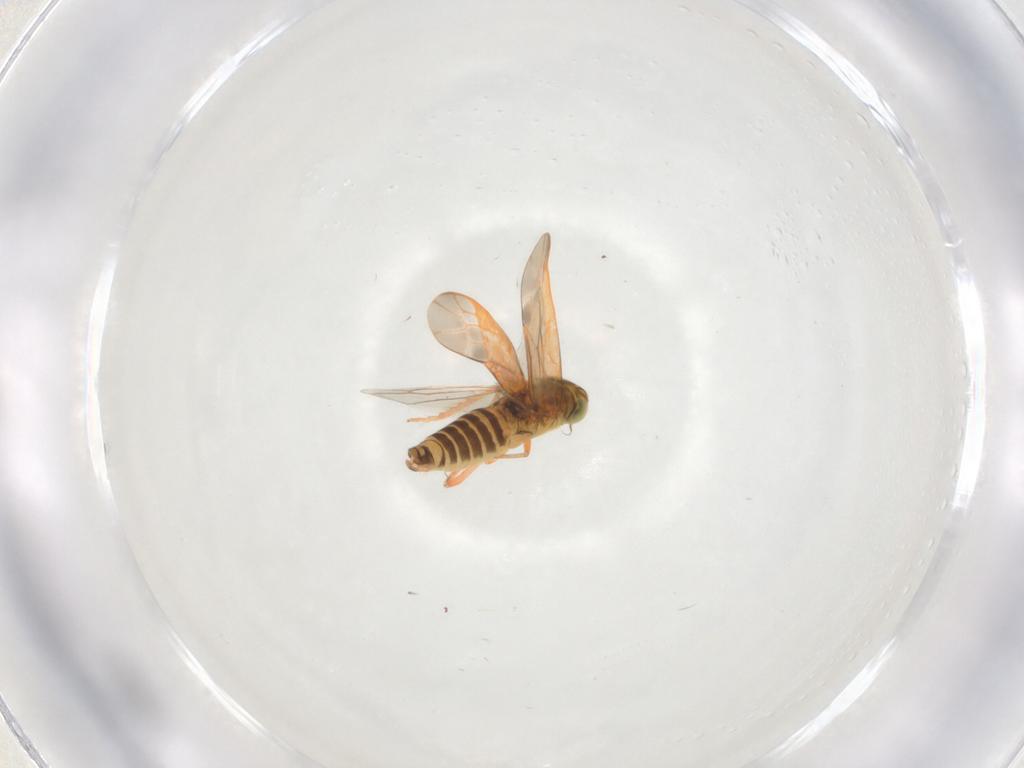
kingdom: Animalia
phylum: Arthropoda
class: Insecta
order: Hemiptera
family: Cicadellidae
